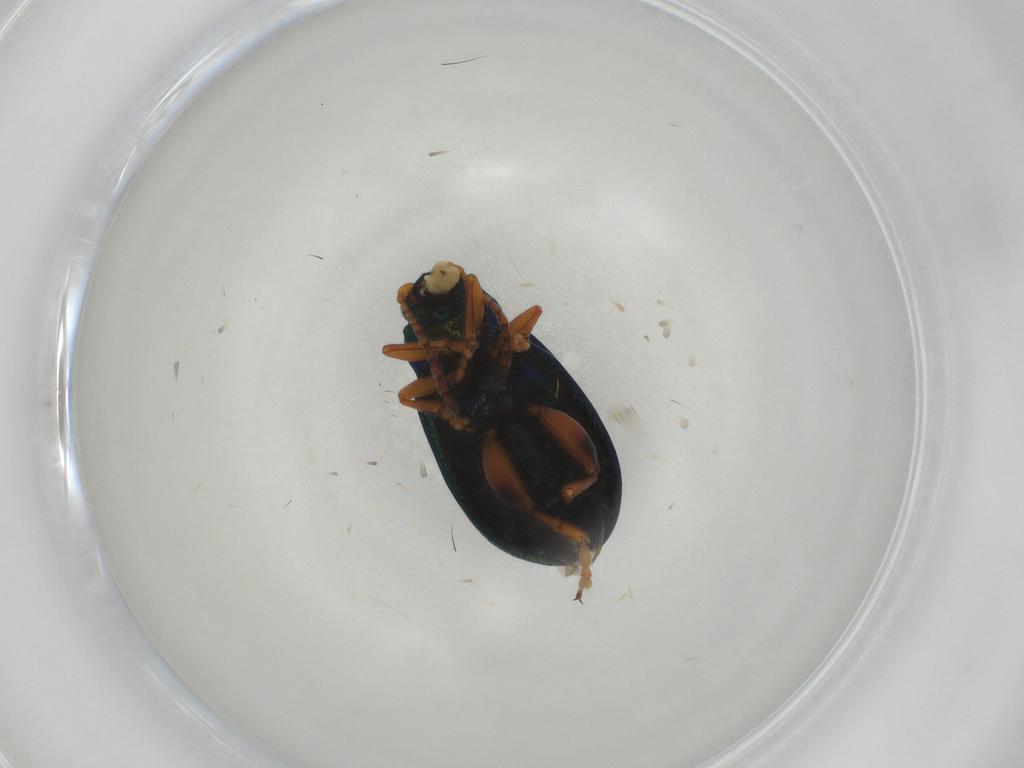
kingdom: Animalia
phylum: Arthropoda
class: Insecta
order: Coleoptera
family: Chrysomelidae
